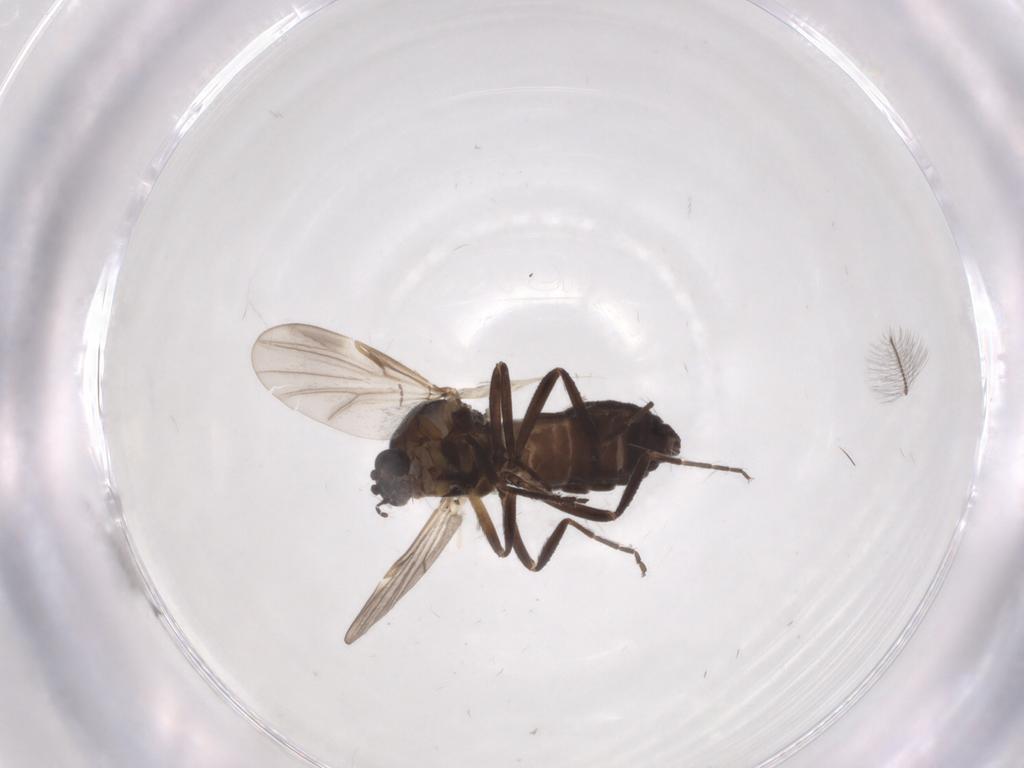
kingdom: Animalia
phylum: Arthropoda
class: Insecta
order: Diptera
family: Ceratopogonidae
